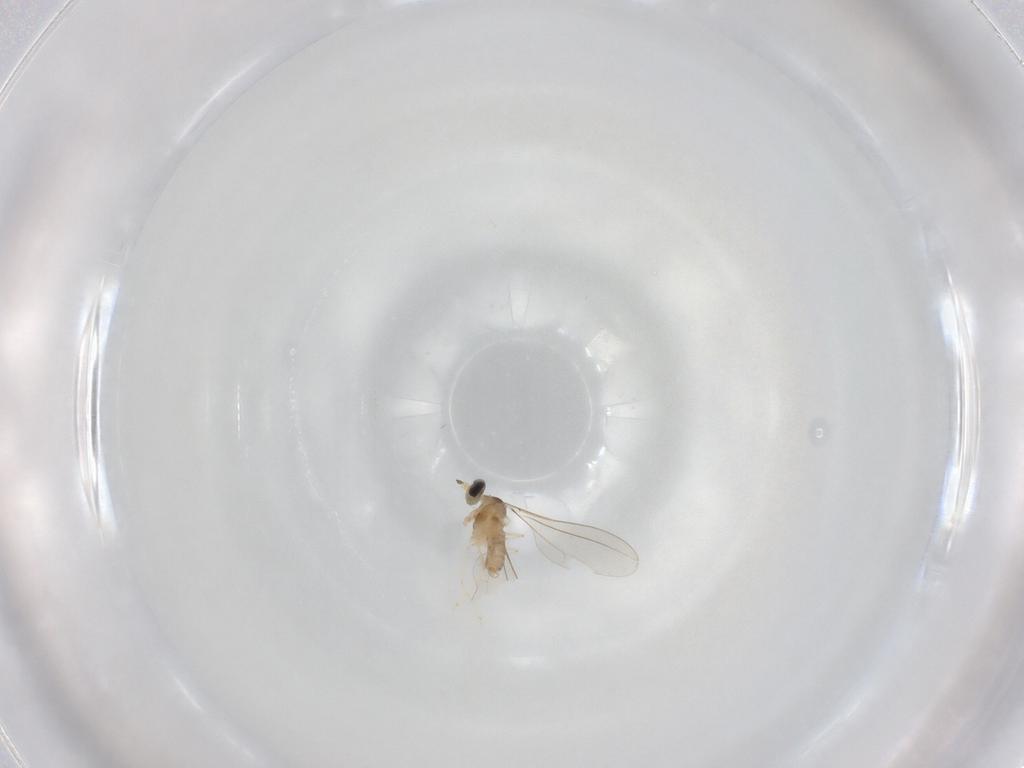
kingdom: Animalia
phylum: Arthropoda
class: Insecta
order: Diptera
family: Cecidomyiidae
